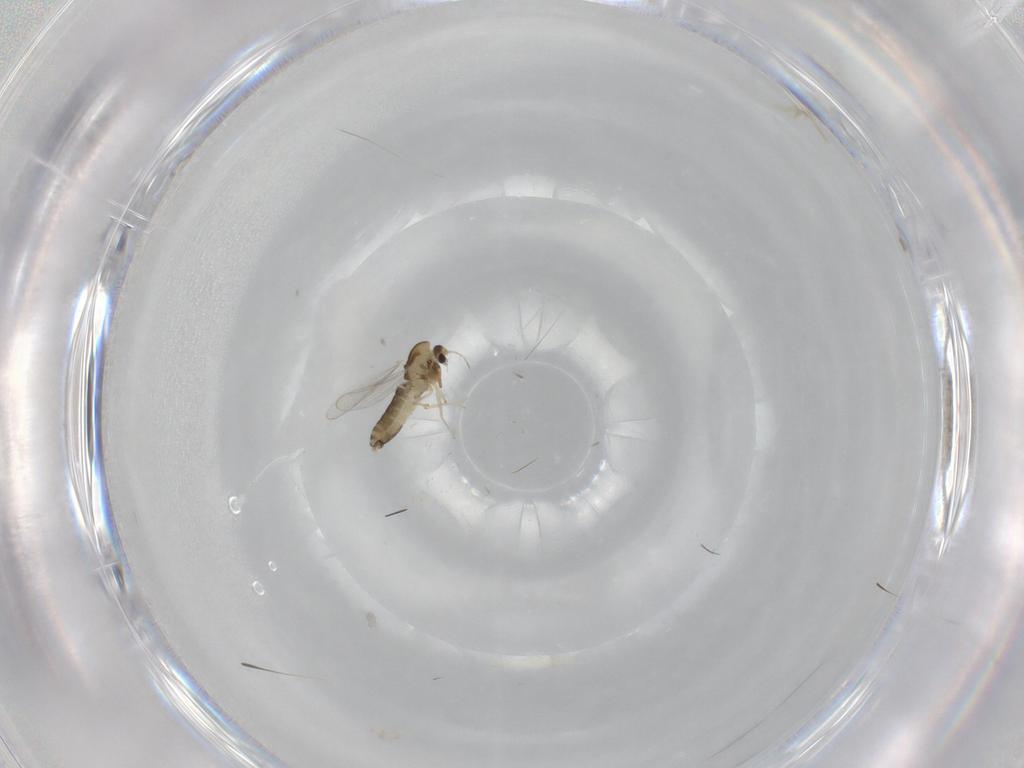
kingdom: Animalia
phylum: Arthropoda
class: Insecta
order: Diptera
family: Chironomidae
